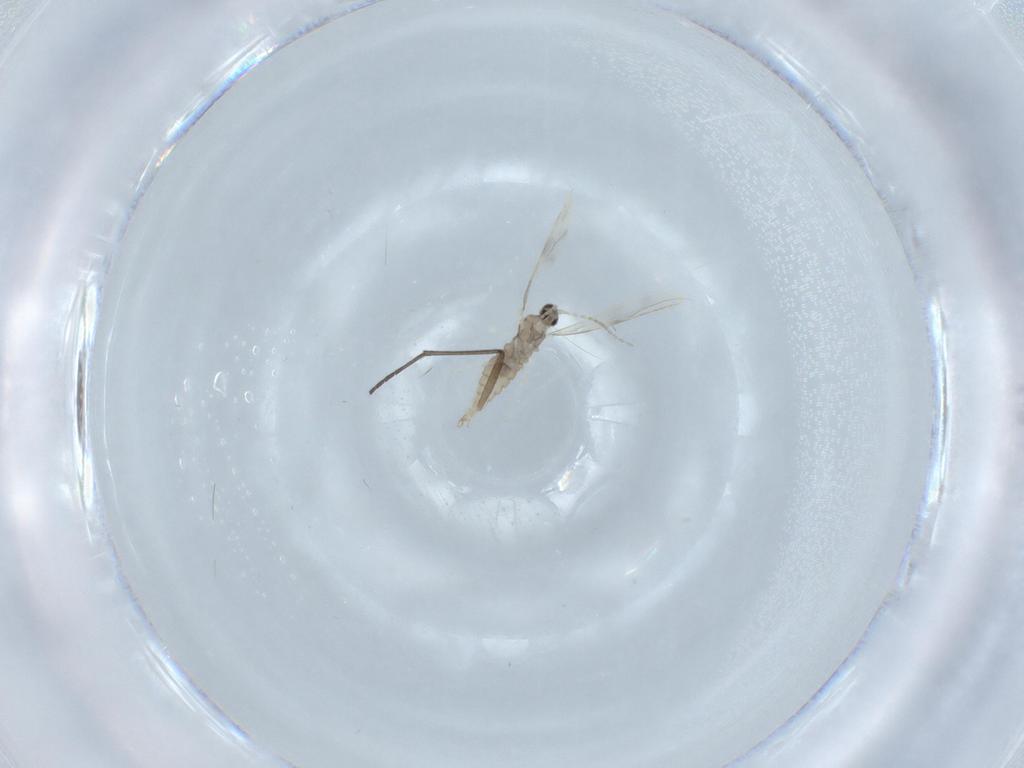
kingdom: Animalia
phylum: Arthropoda
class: Insecta
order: Diptera
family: Cecidomyiidae
